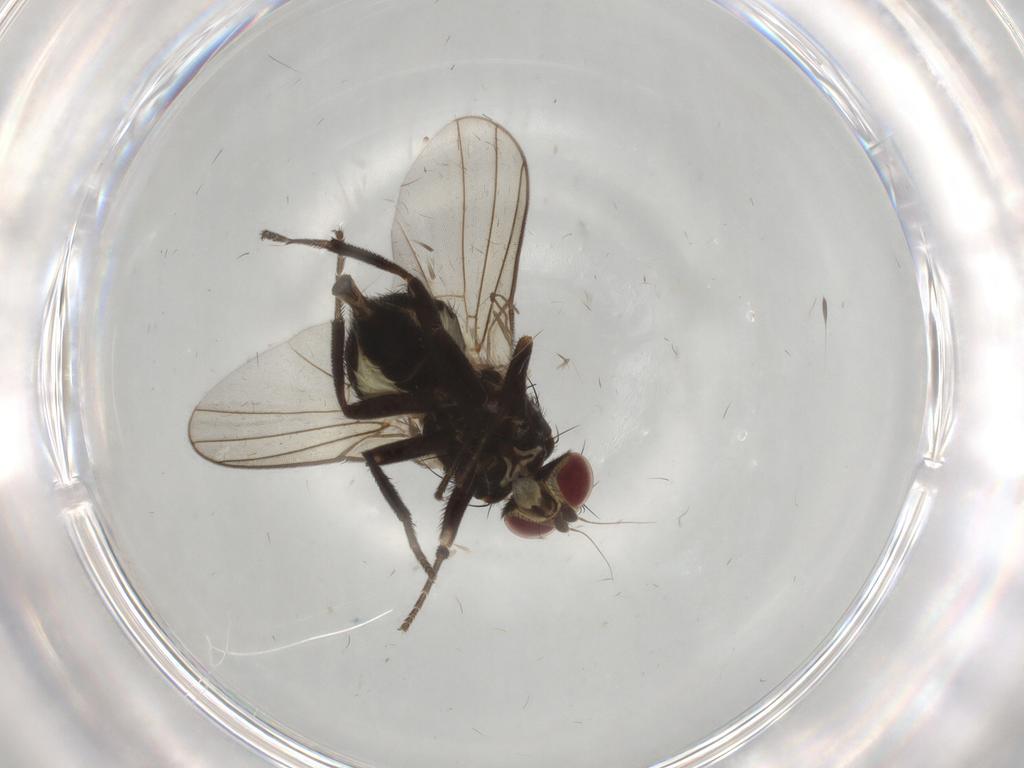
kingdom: Animalia
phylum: Arthropoda
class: Insecta
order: Diptera
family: Agromyzidae
